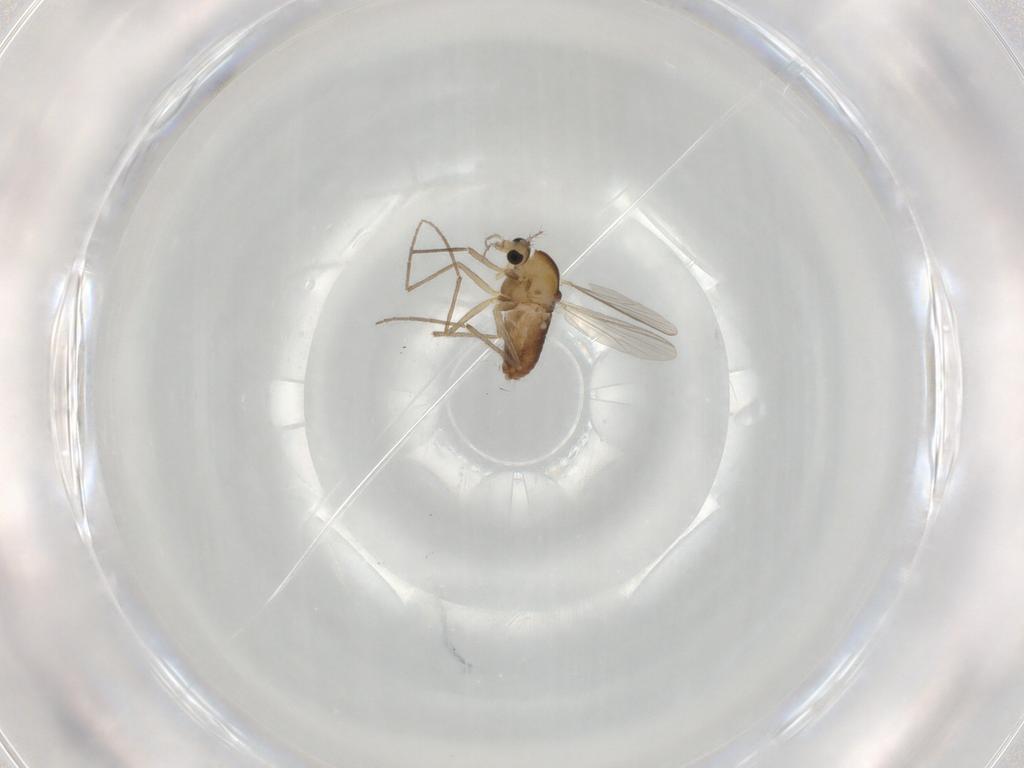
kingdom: Animalia
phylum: Arthropoda
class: Insecta
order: Diptera
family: Chironomidae
